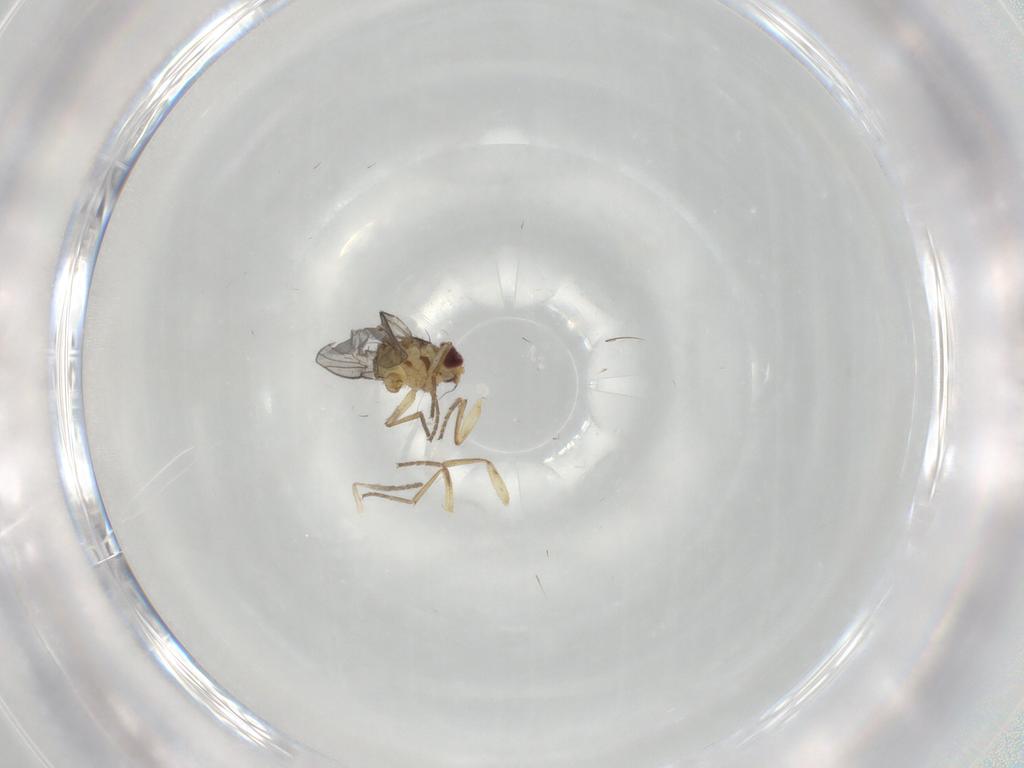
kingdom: Animalia
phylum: Arthropoda
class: Insecta
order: Diptera
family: Agromyzidae
